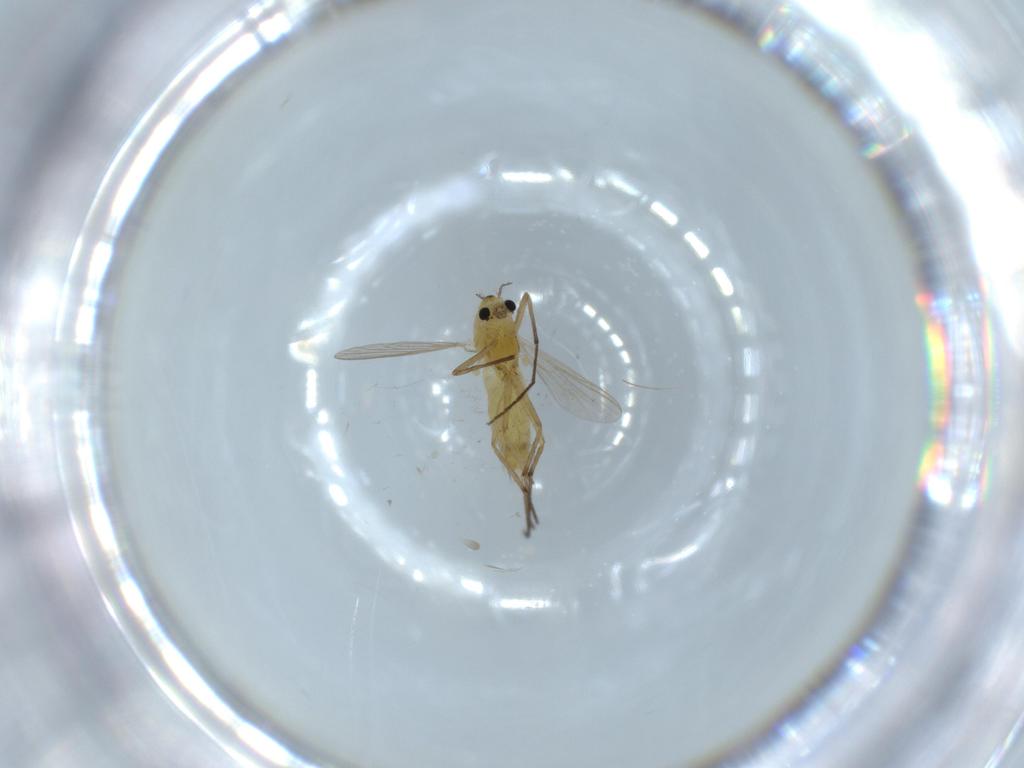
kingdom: Animalia
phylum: Arthropoda
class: Insecta
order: Diptera
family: Chironomidae
